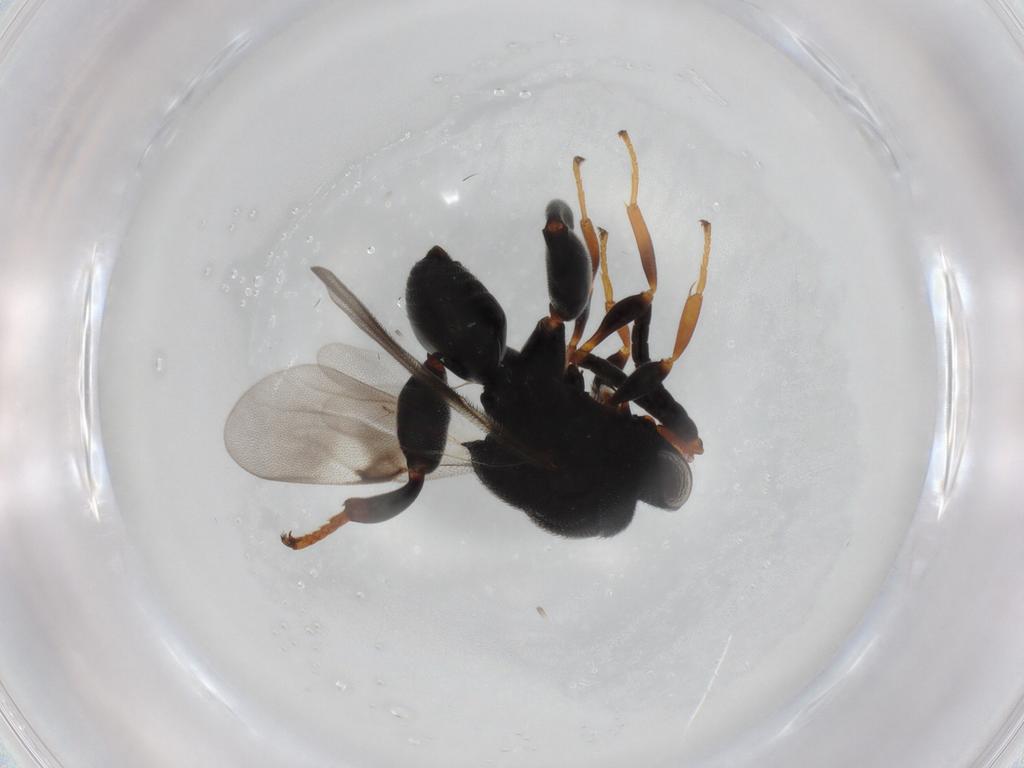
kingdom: Animalia
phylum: Arthropoda
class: Insecta
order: Hymenoptera
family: Eulophidae
